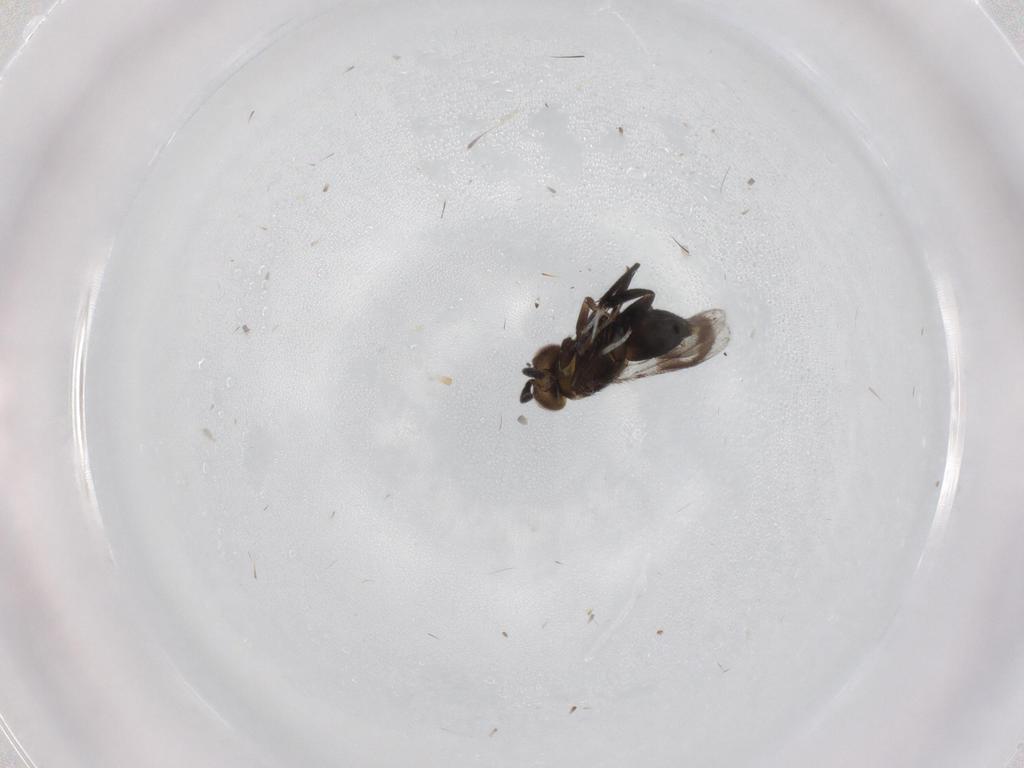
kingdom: Animalia
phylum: Arthropoda
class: Insecta
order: Hymenoptera
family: Aphelinidae
